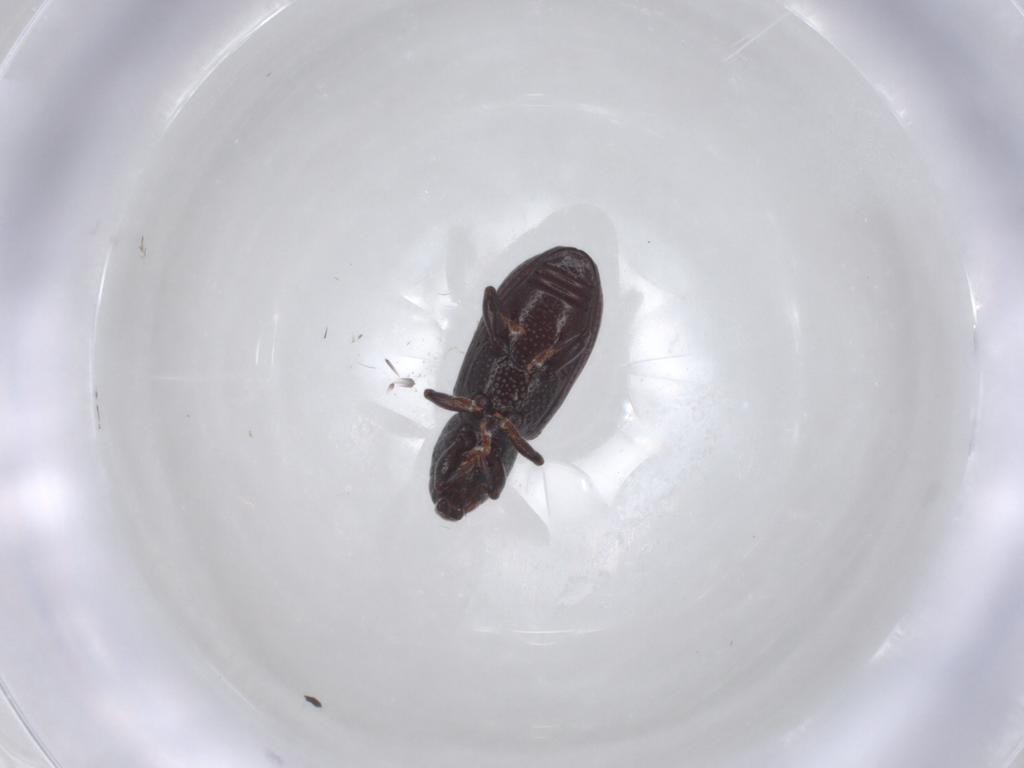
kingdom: Animalia
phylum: Arthropoda
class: Insecta
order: Coleoptera
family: Curculionidae
